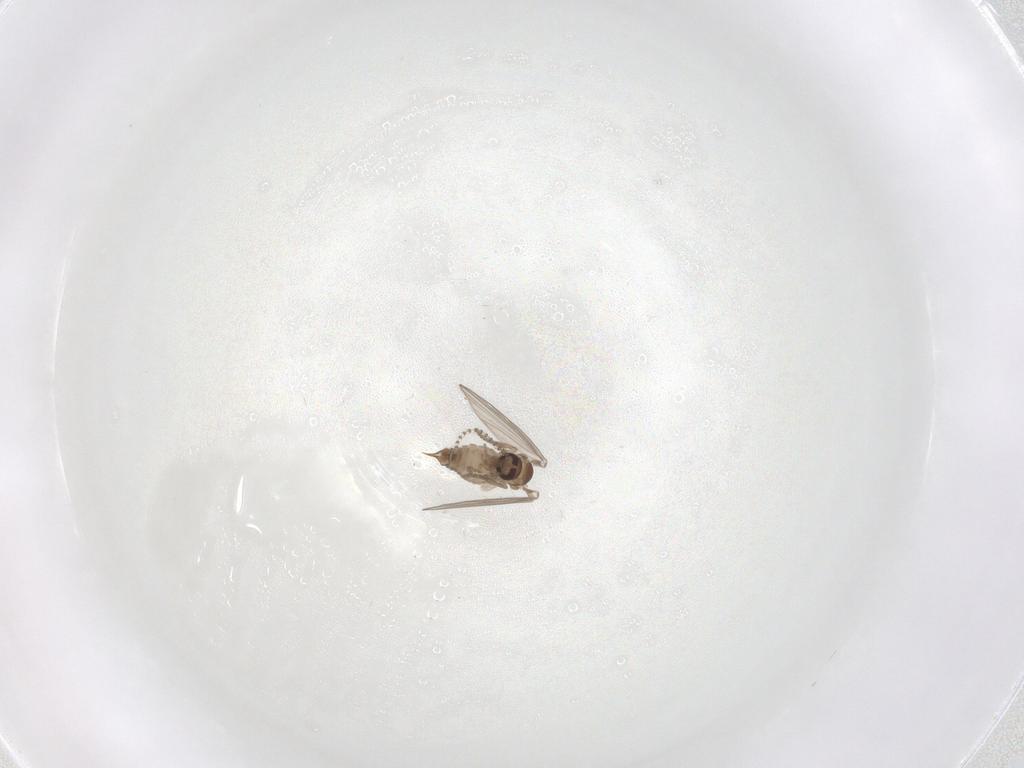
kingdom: Animalia
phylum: Arthropoda
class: Insecta
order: Diptera
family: Psychodidae
